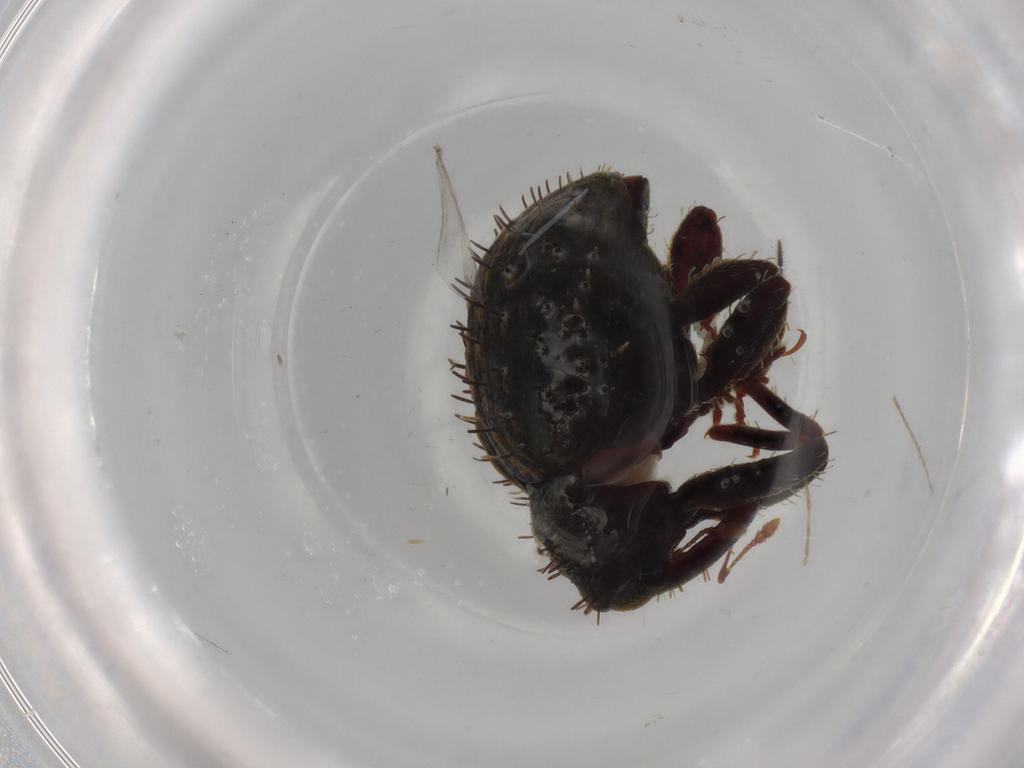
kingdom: Animalia
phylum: Arthropoda
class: Insecta
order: Coleoptera
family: Curculionidae
